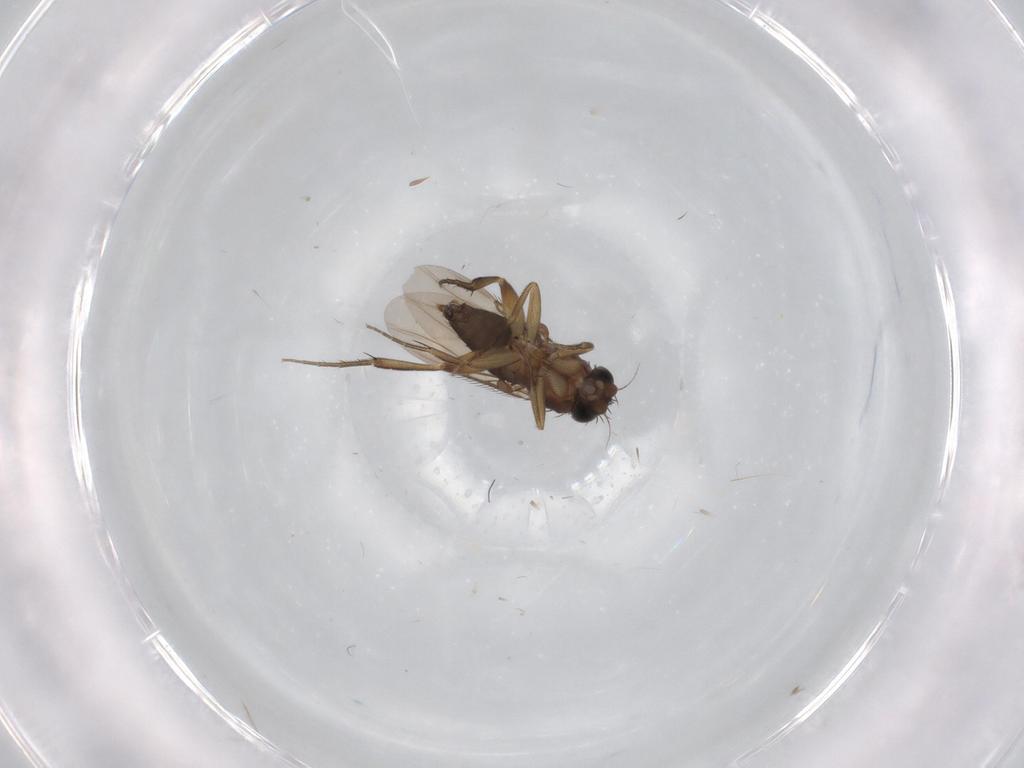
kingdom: Animalia
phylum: Arthropoda
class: Insecta
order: Diptera
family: Phoridae
